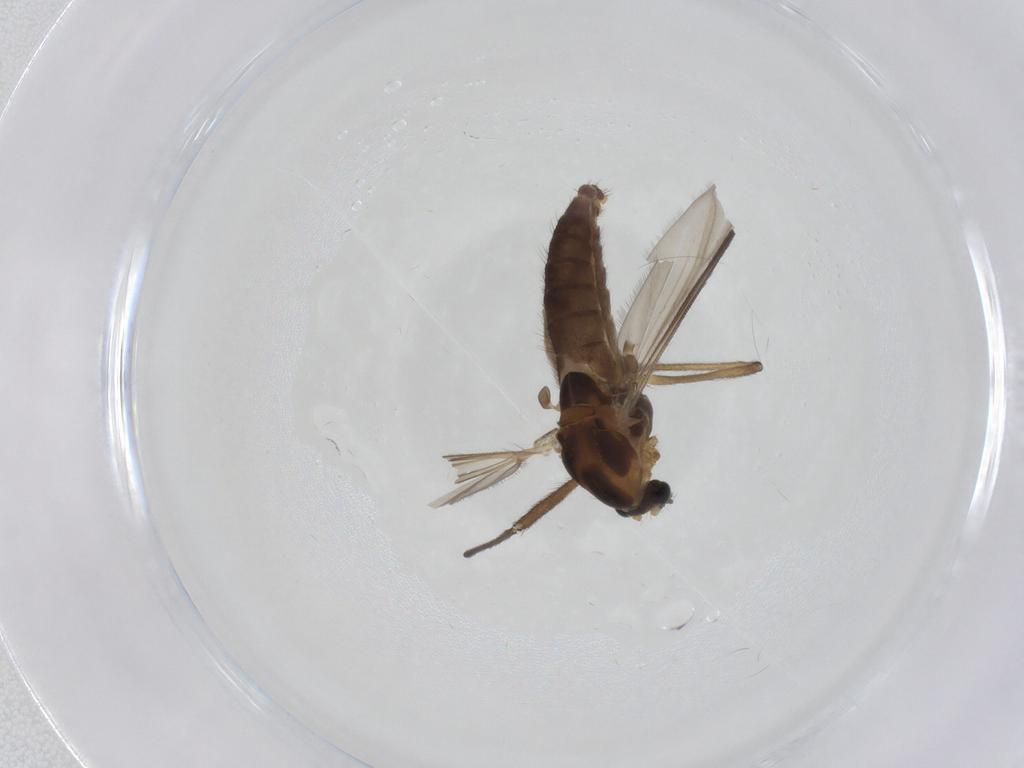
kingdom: Animalia
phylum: Arthropoda
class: Insecta
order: Diptera
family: Chironomidae
